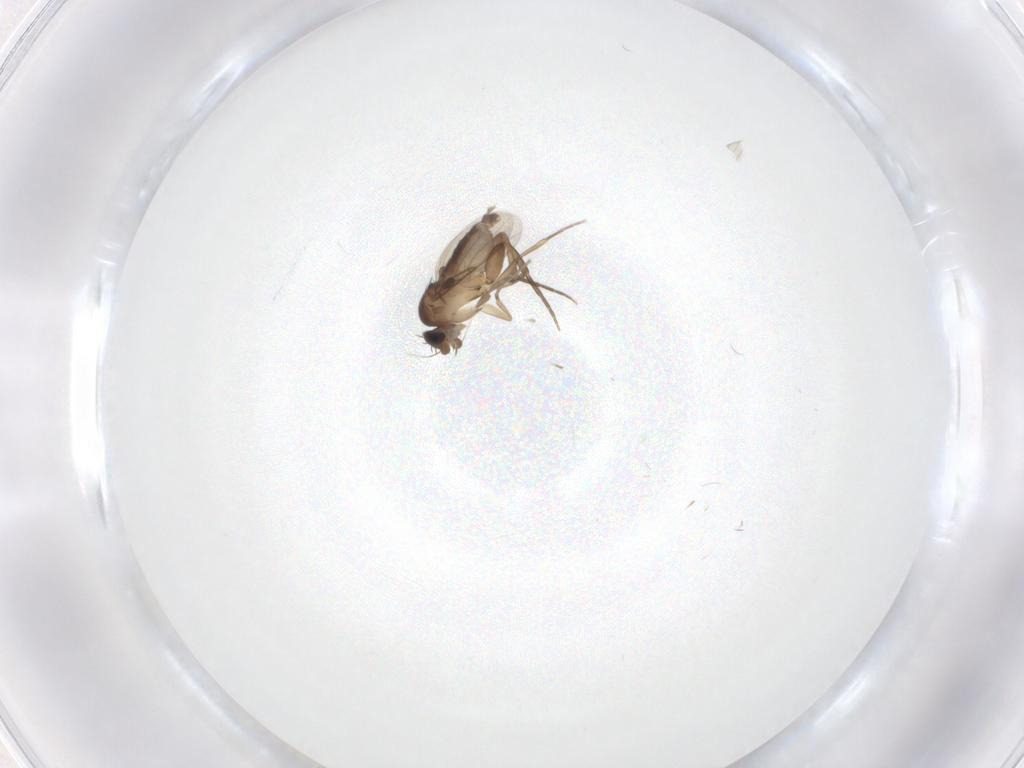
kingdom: Animalia
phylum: Arthropoda
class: Insecta
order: Diptera
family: Phoridae
